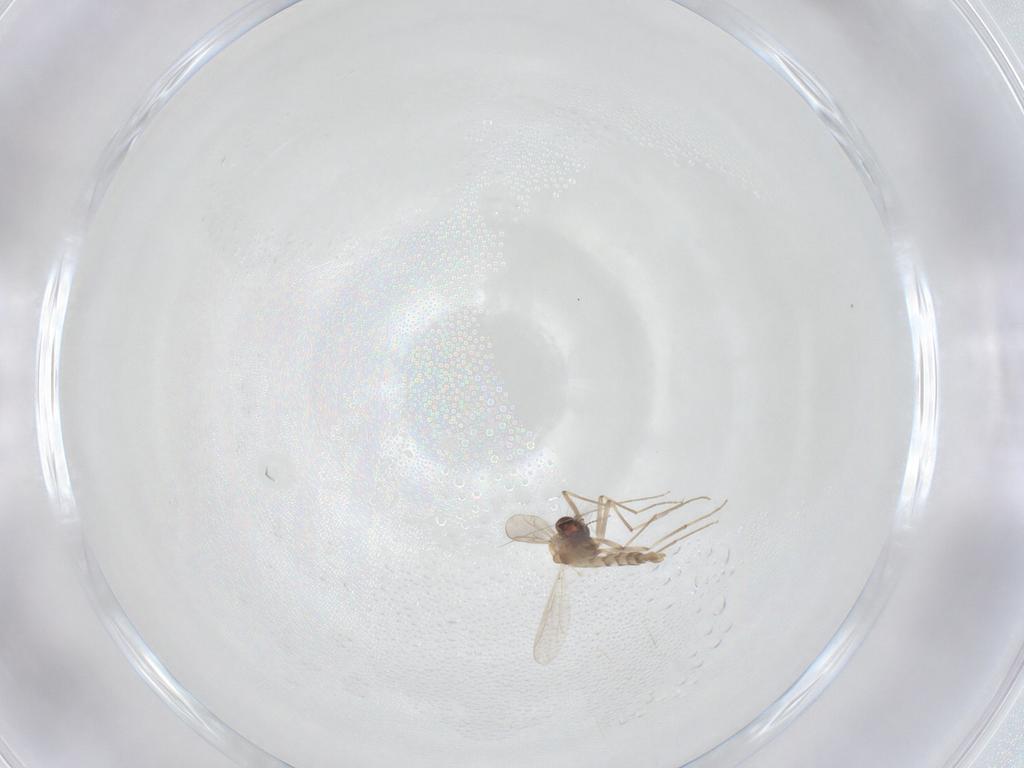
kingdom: Animalia
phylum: Arthropoda
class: Insecta
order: Diptera
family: Chironomidae
